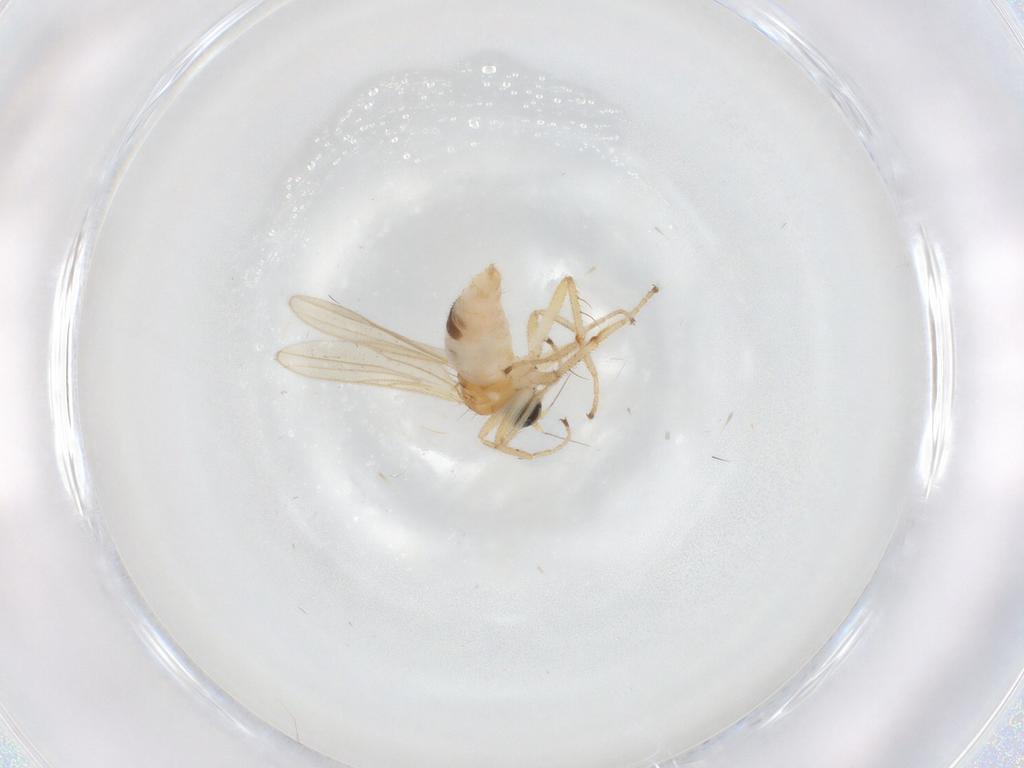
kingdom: Animalia
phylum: Arthropoda
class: Insecta
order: Diptera
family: Hybotidae
